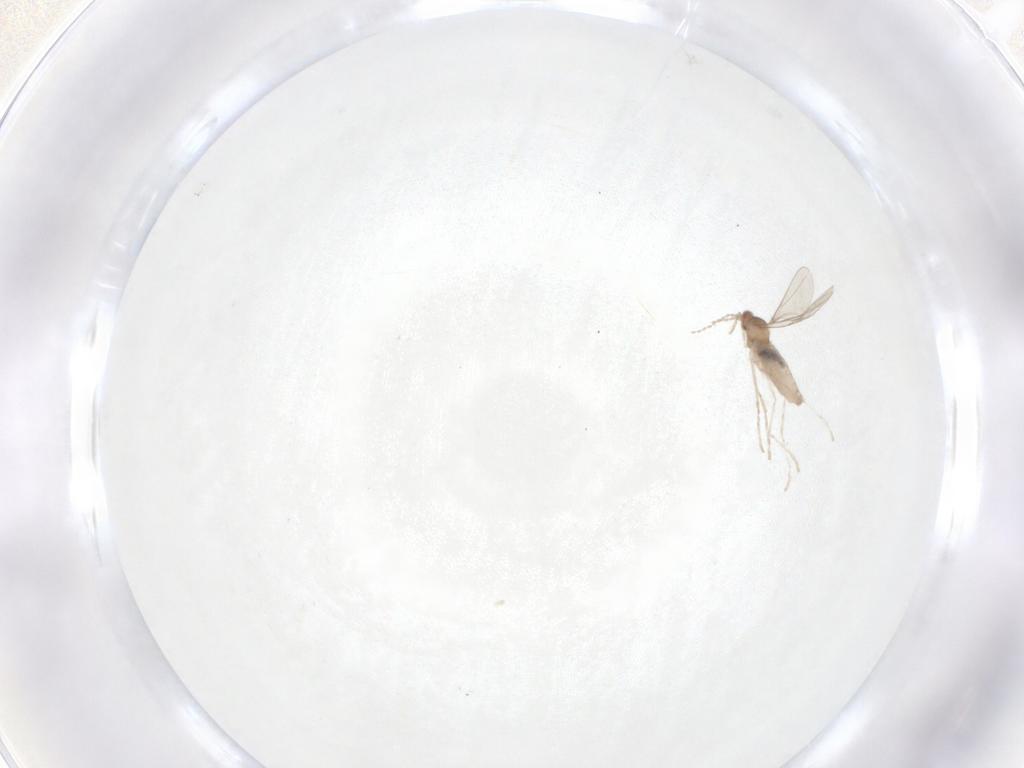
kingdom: Animalia
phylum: Arthropoda
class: Insecta
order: Diptera
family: Cecidomyiidae
